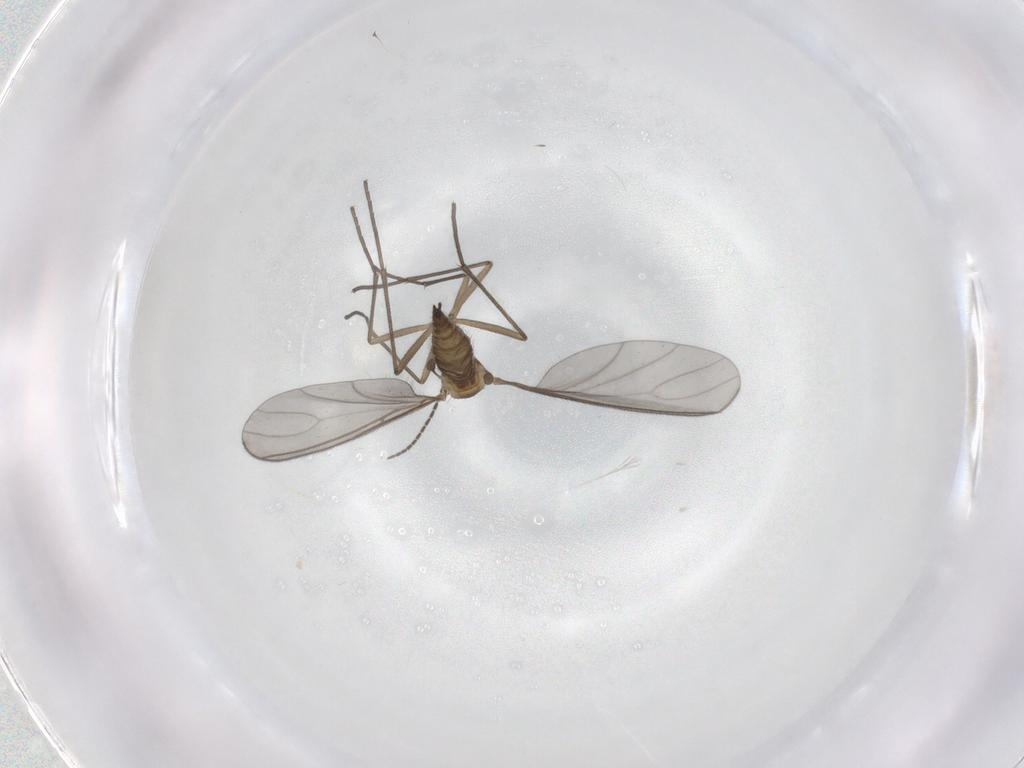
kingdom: Animalia
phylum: Arthropoda
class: Insecta
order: Diptera
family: Sciaridae
